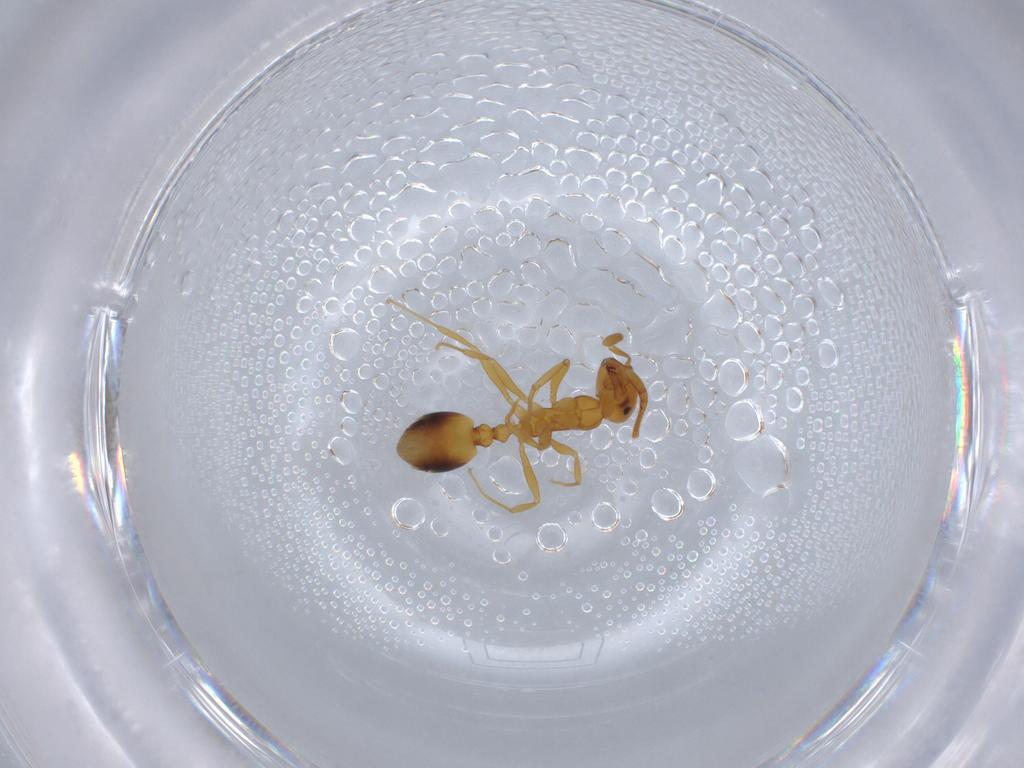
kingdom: Animalia
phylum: Arthropoda
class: Insecta
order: Hymenoptera
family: Formicidae
